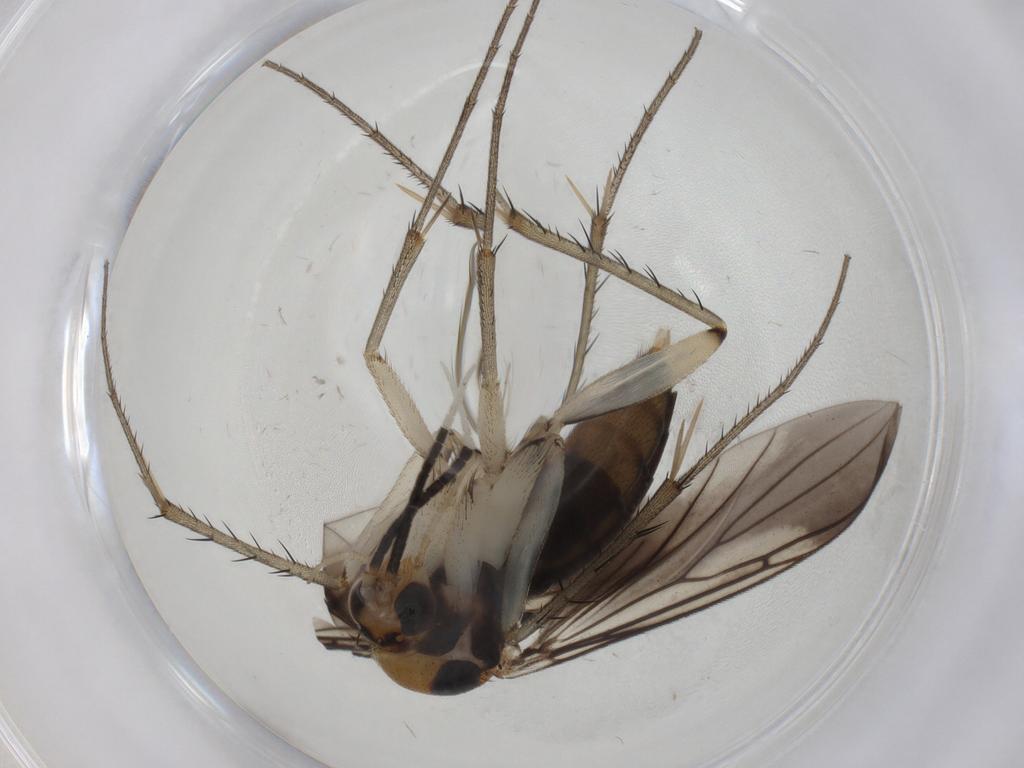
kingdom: Animalia
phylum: Arthropoda
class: Insecta
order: Diptera
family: Mycetophilidae
